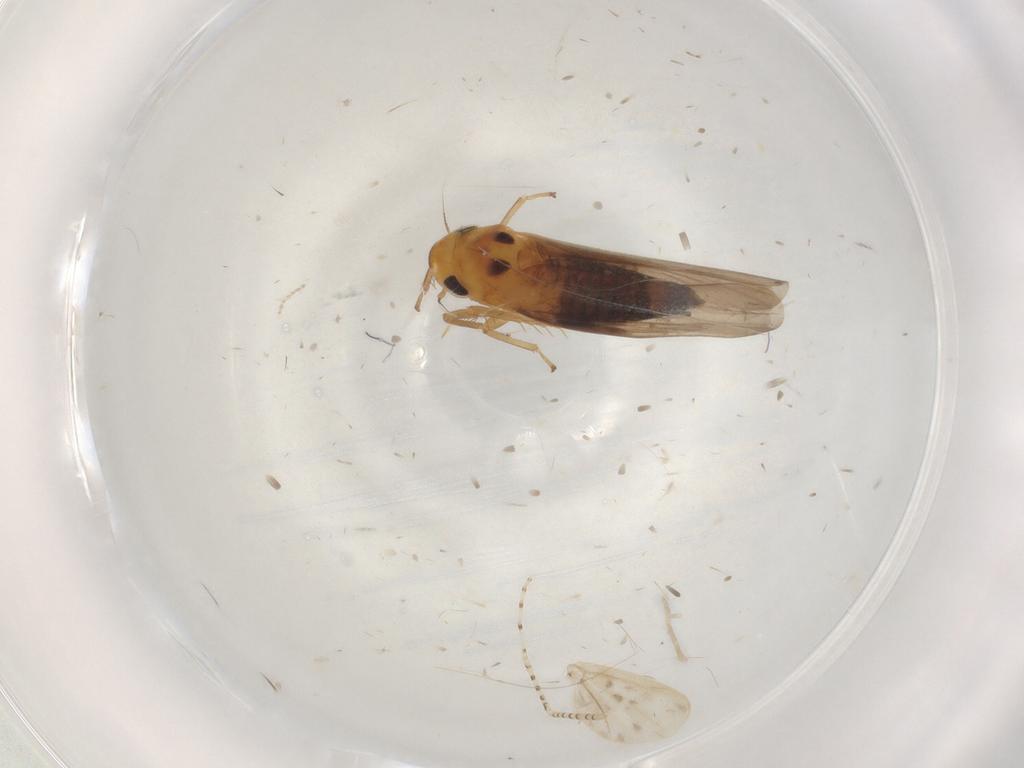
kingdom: Animalia
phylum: Arthropoda
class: Insecta
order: Hemiptera
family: Cicadellidae
